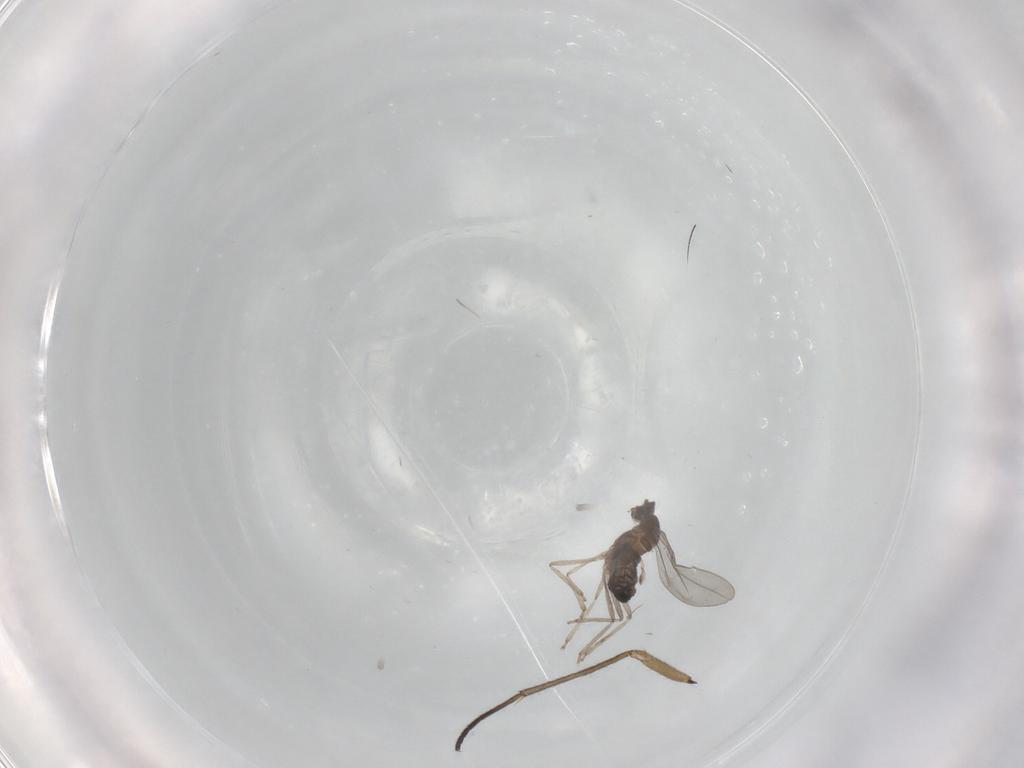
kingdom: Animalia
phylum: Arthropoda
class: Insecta
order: Diptera
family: Cecidomyiidae
